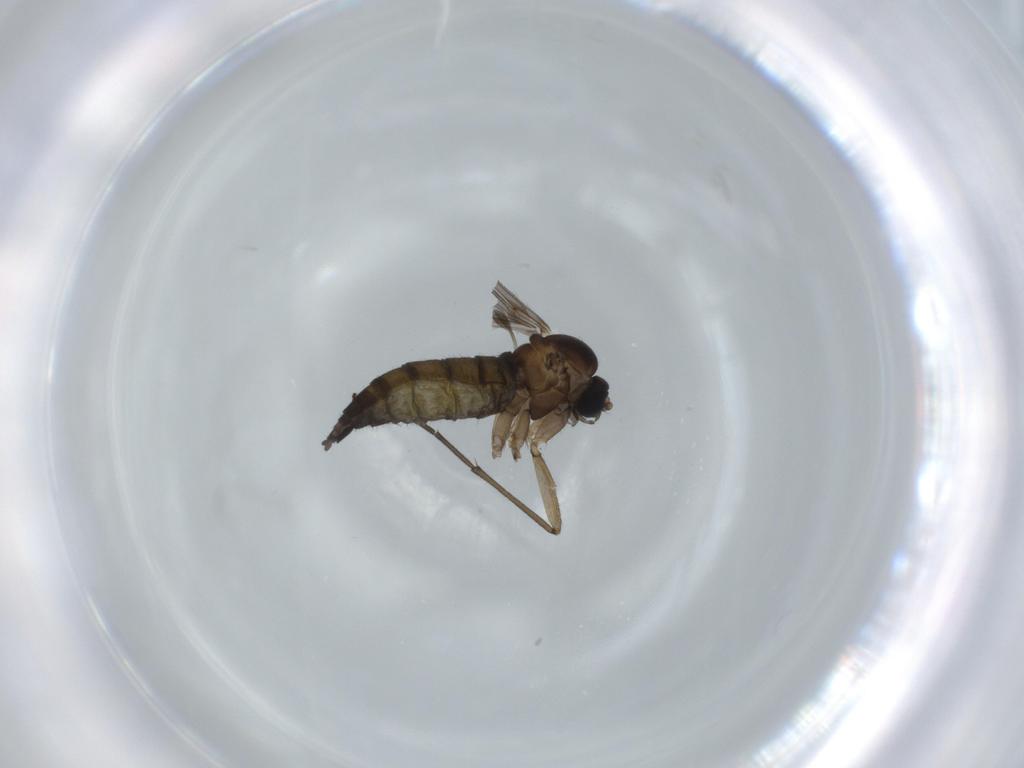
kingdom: Animalia
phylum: Arthropoda
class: Insecta
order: Diptera
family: Sciaridae
